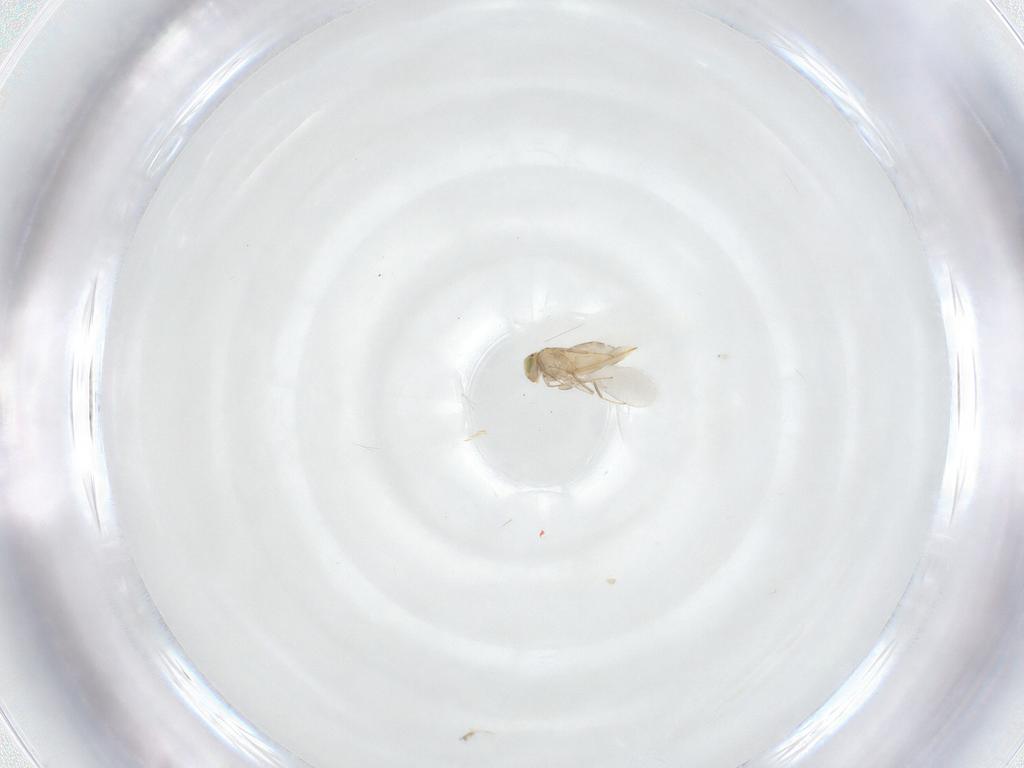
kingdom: Animalia
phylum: Arthropoda
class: Insecta
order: Hymenoptera
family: Aphelinidae
